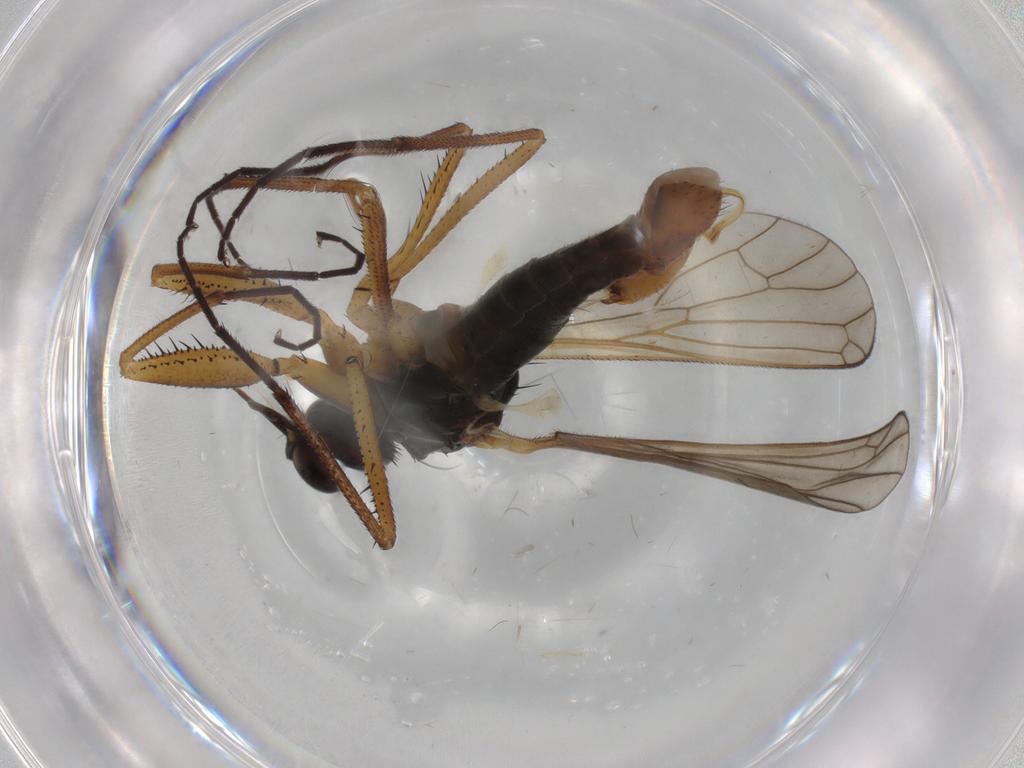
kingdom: Animalia
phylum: Arthropoda
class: Insecta
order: Diptera
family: Empididae
